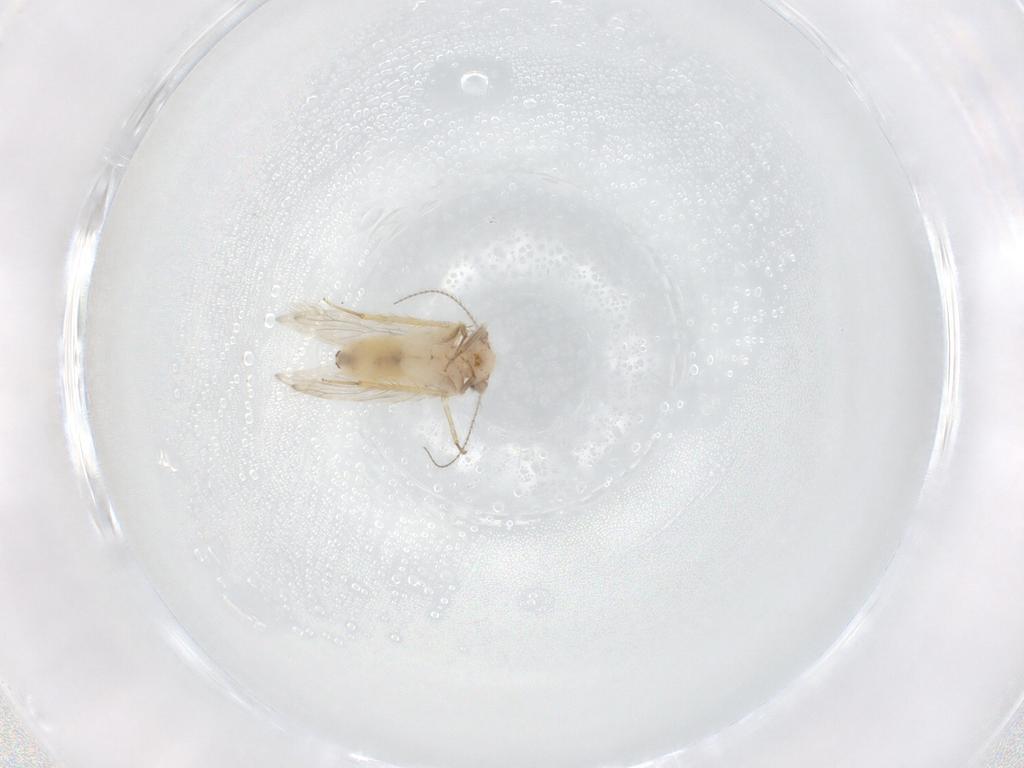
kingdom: Animalia
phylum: Arthropoda
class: Insecta
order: Psocodea
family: Lepidopsocidae
